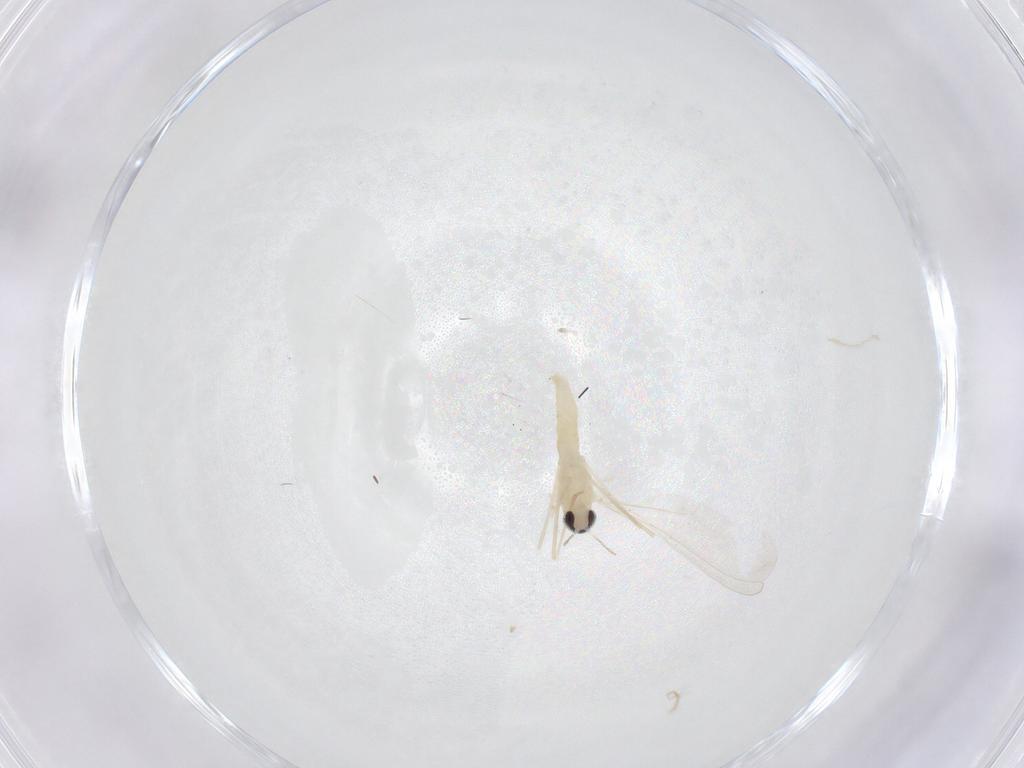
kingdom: Animalia
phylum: Arthropoda
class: Insecta
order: Diptera
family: Cecidomyiidae
